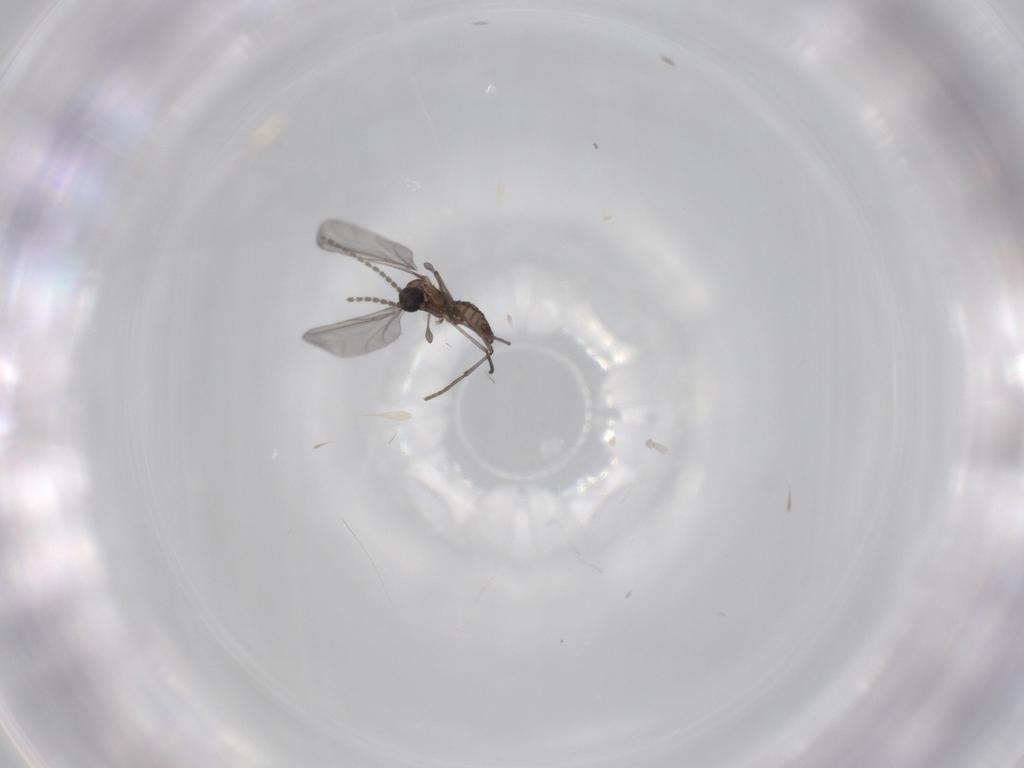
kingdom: Animalia
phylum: Arthropoda
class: Insecta
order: Diptera
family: Sciaridae
